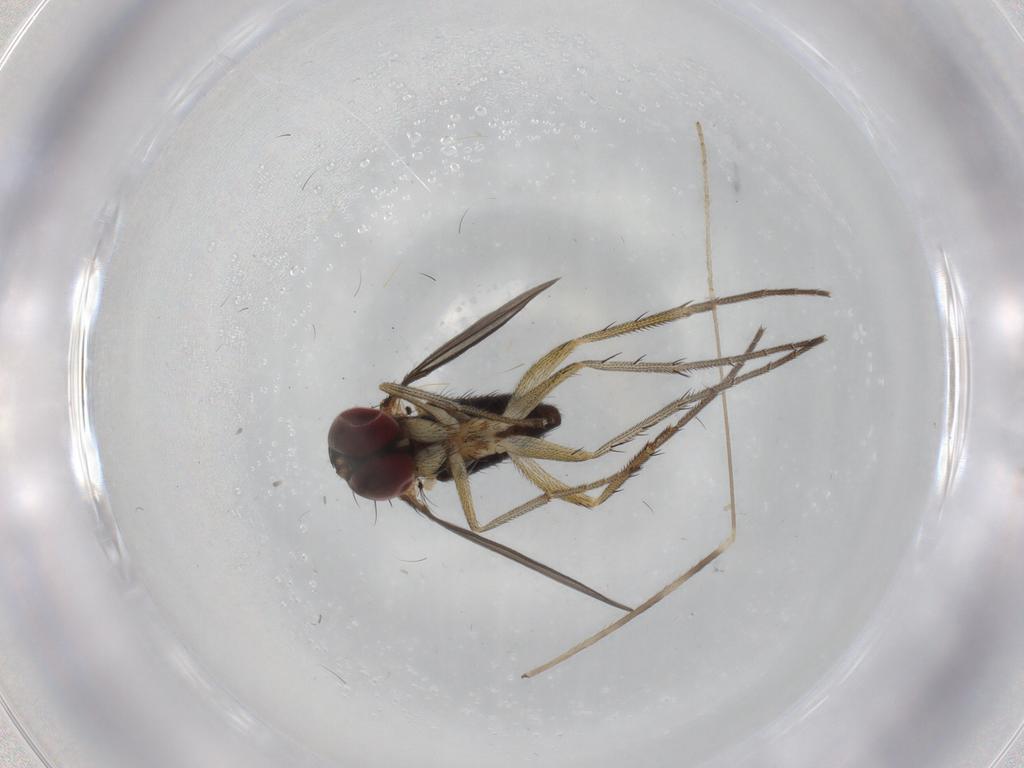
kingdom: Animalia
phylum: Arthropoda
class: Insecta
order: Diptera
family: Dolichopodidae
